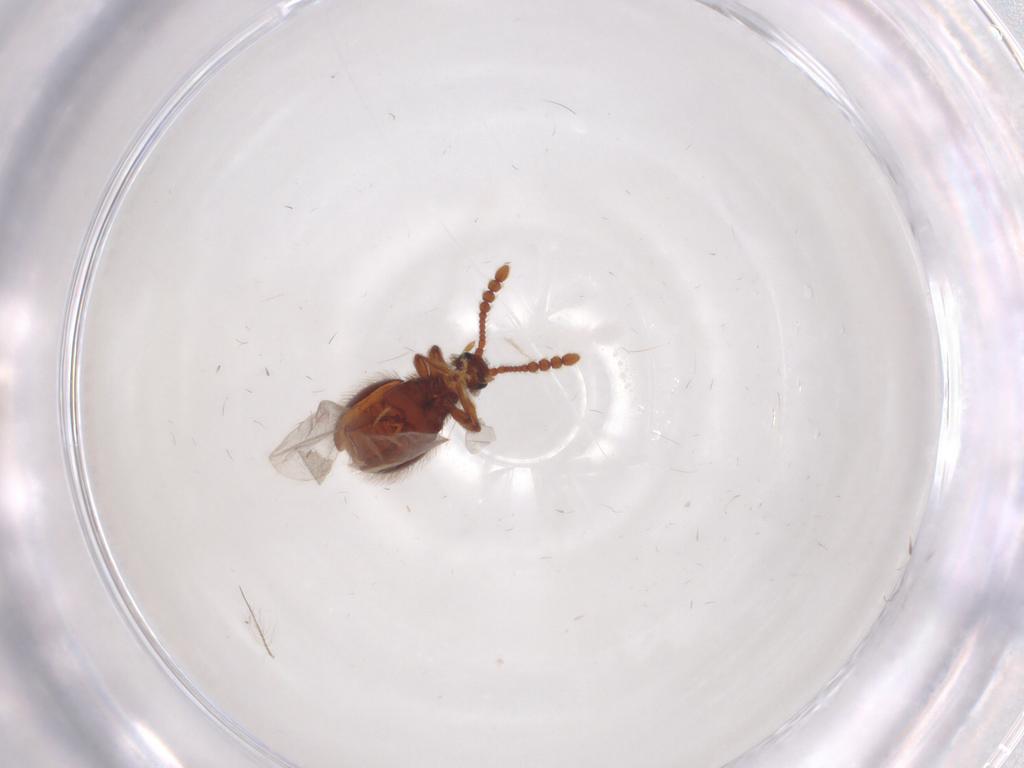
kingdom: Animalia
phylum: Arthropoda
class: Insecta
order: Coleoptera
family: Staphylinidae
